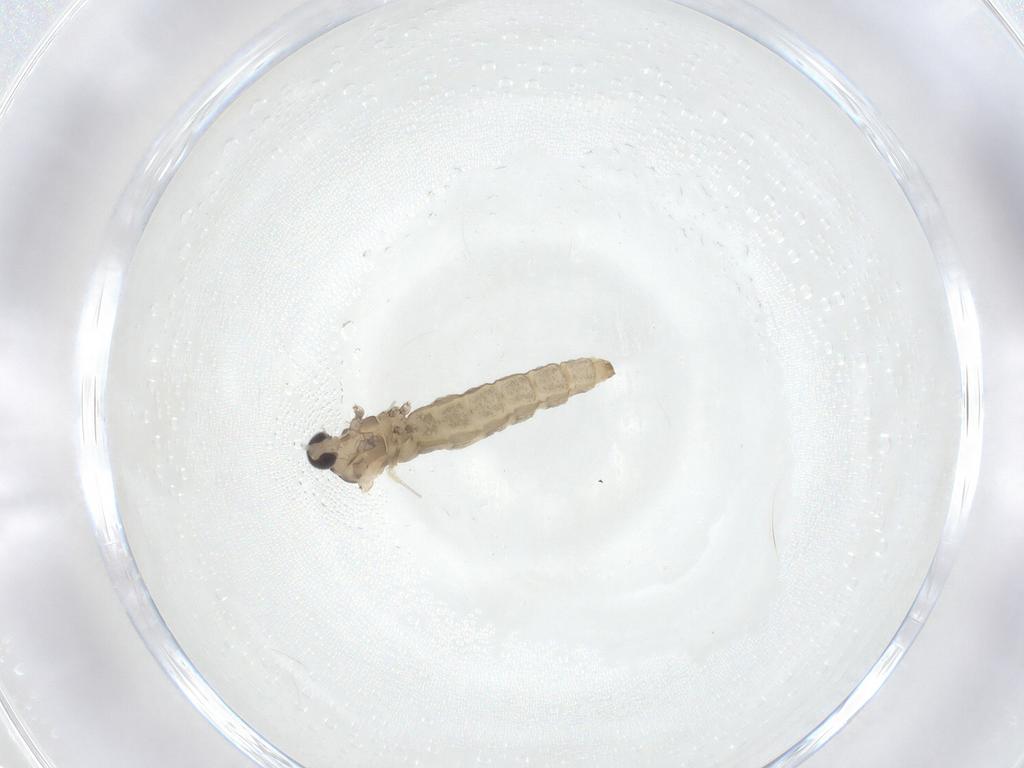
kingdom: Animalia
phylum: Arthropoda
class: Insecta
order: Diptera
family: Cecidomyiidae
